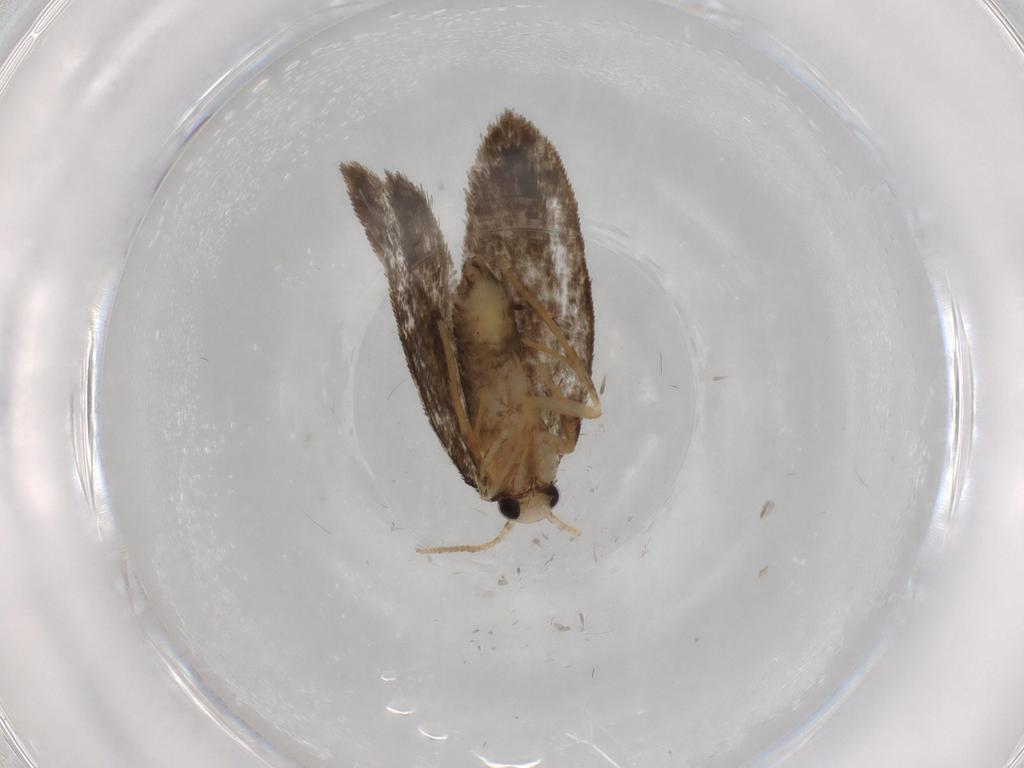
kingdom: Animalia
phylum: Arthropoda
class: Insecta
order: Lepidoptera
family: Psychidae
